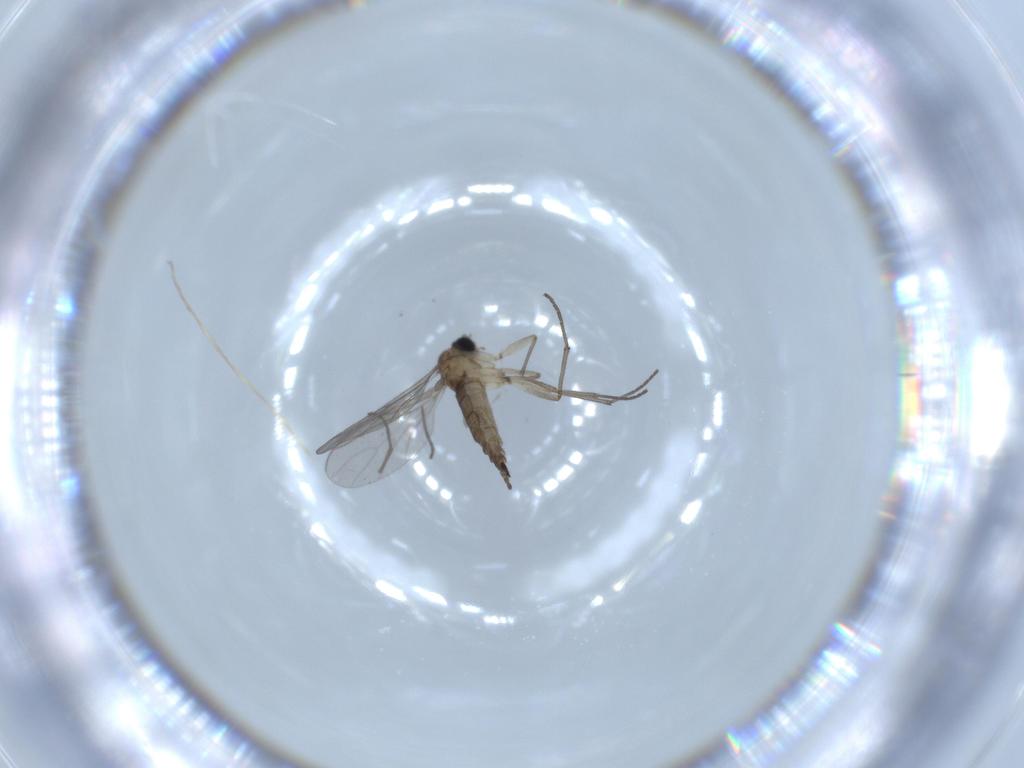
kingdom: Animalia
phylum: Arthropoda
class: Insecta
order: Diptera
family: Sciaridae
